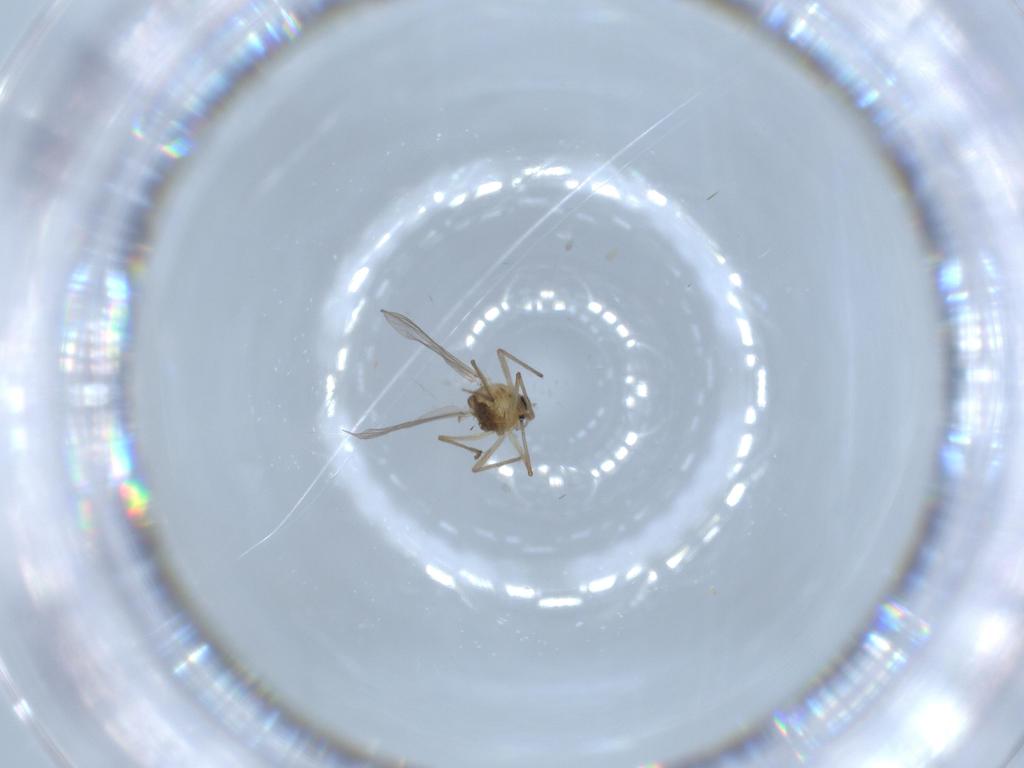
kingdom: Animalia
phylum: Arthropoda
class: Insecta
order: Diptera
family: Chironomidae
